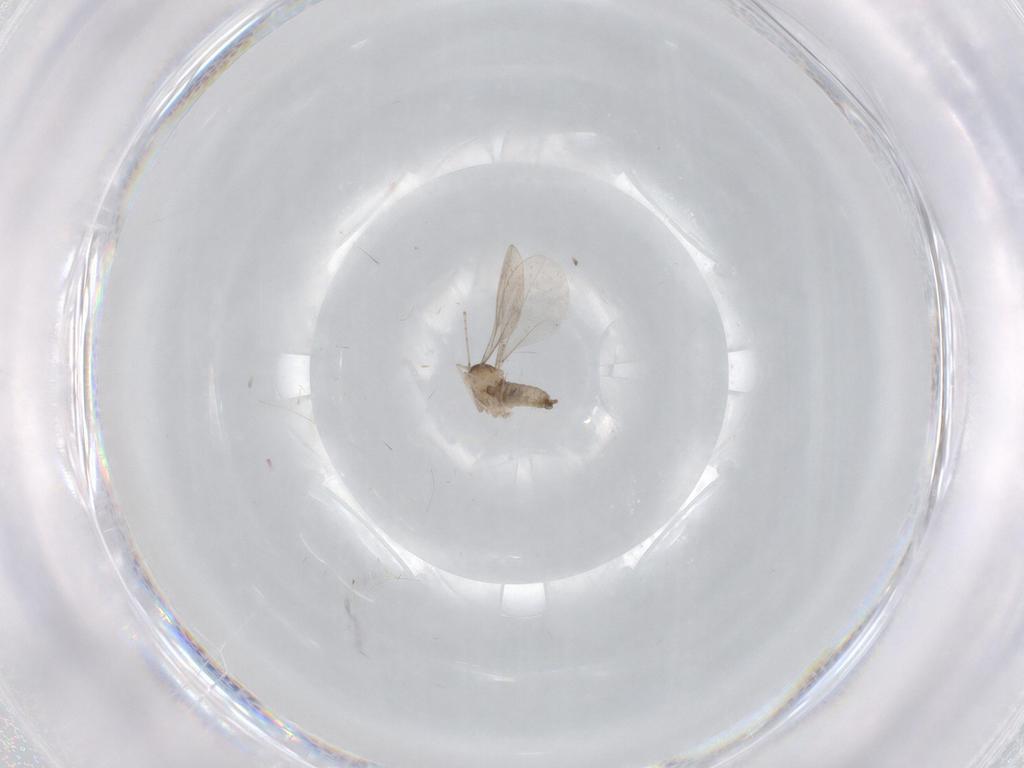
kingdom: Animalia
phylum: Arthropoda
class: Insecta
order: Diptera
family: Cecidomyiidae
